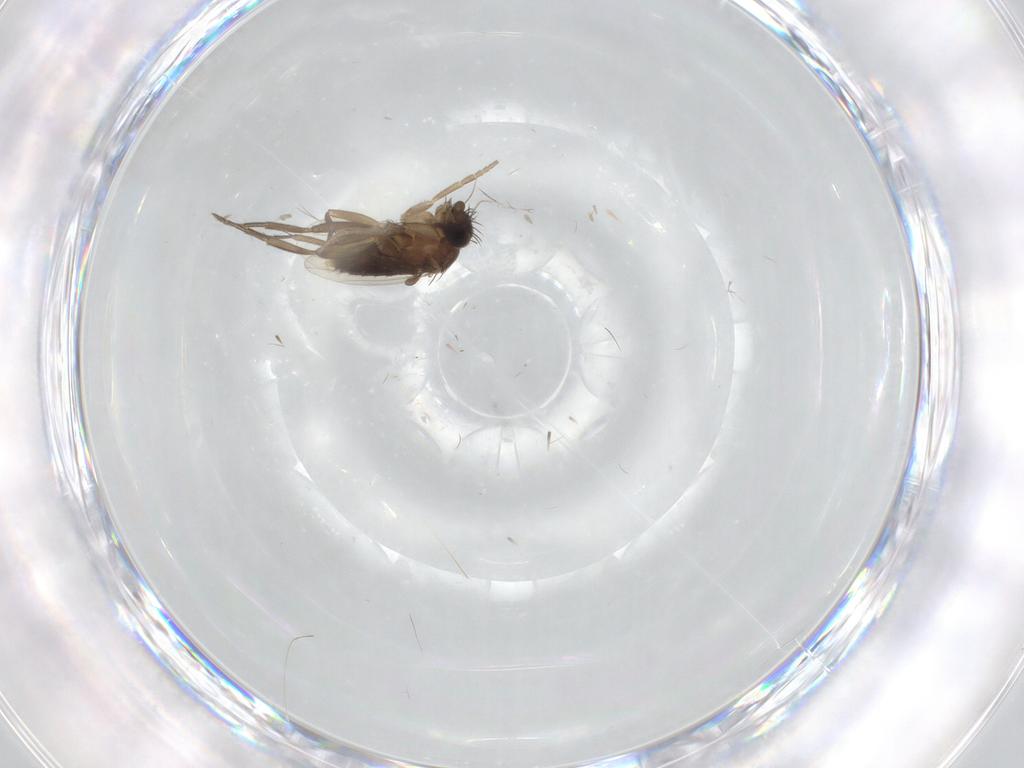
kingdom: Animalia
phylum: Arthropoda
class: Insecta
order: Diptera
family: Phoridae
